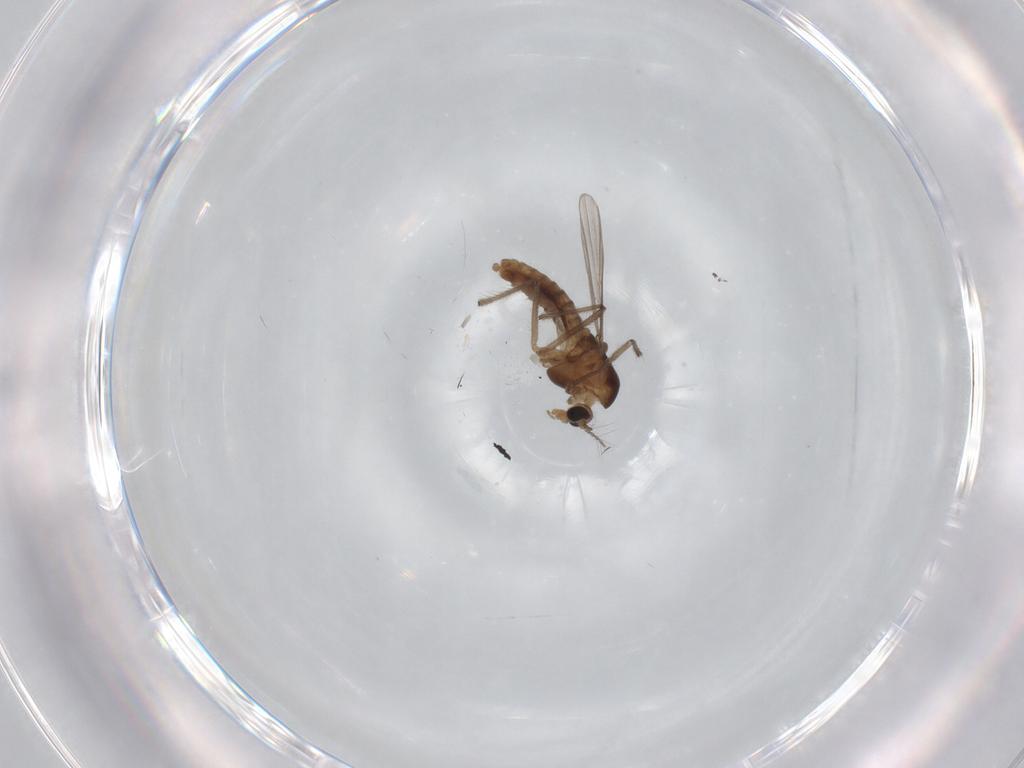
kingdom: Animalia
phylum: Arthropoda
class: Insecta
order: Diptera
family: Chironomidae
